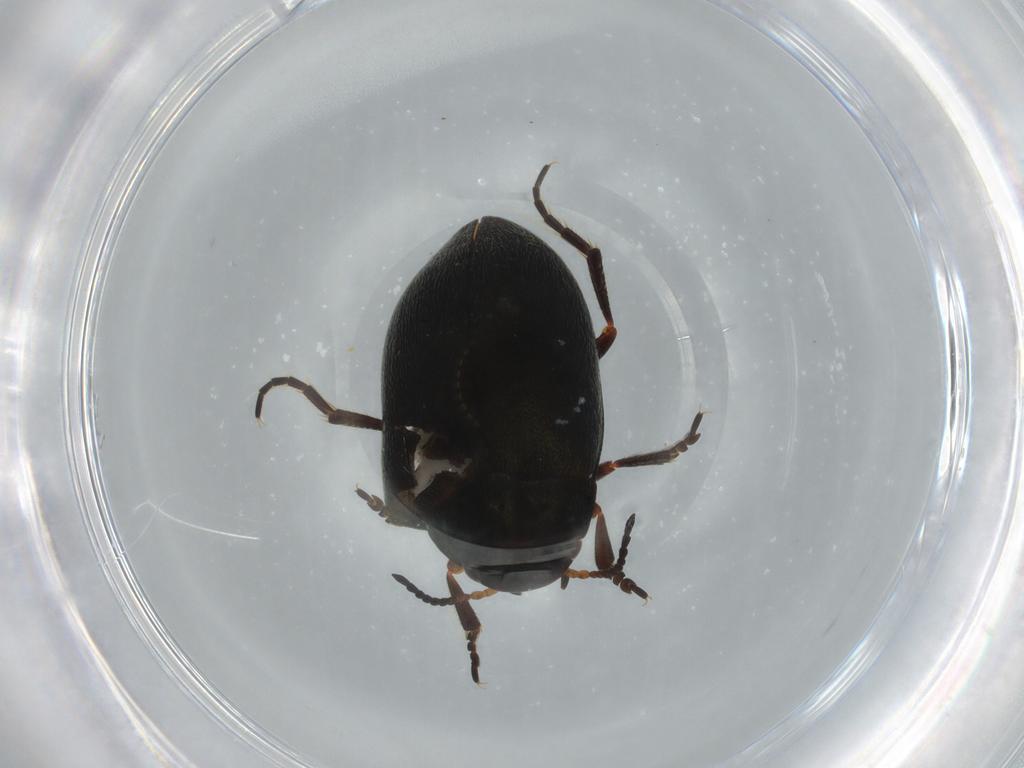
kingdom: Animalia
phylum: Arthropoda
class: Insecta
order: Coleoptera
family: Dytiscidae
